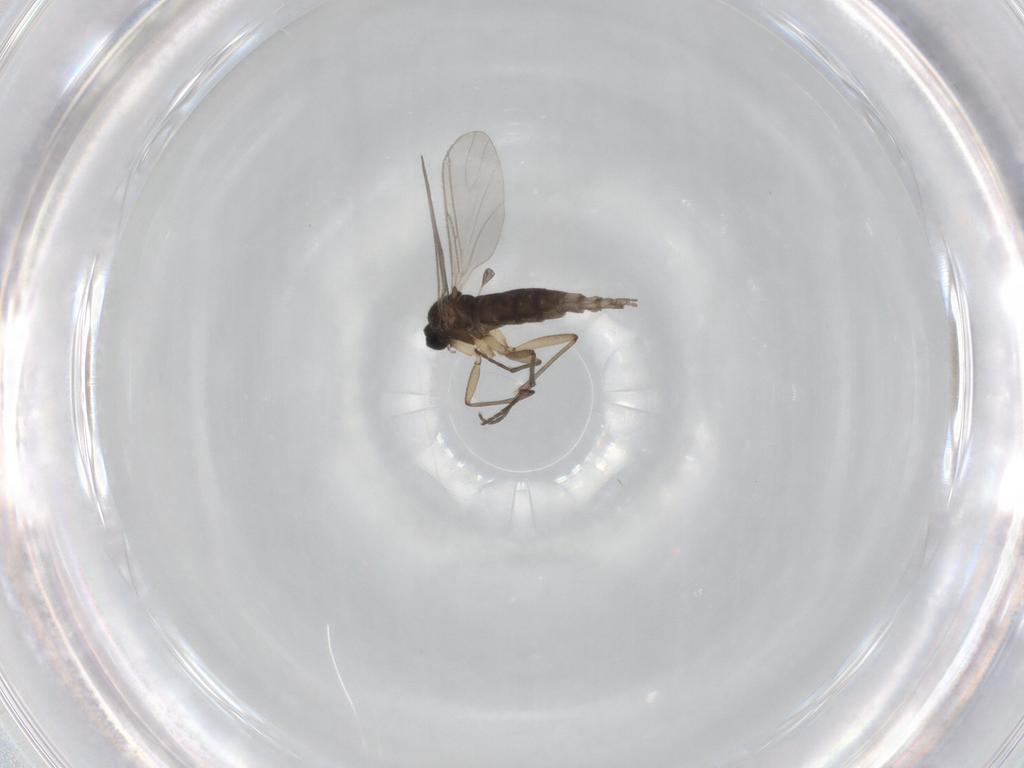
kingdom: Animalia
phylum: Arthropoda
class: Insecta
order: Diptera
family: Sciaridae
